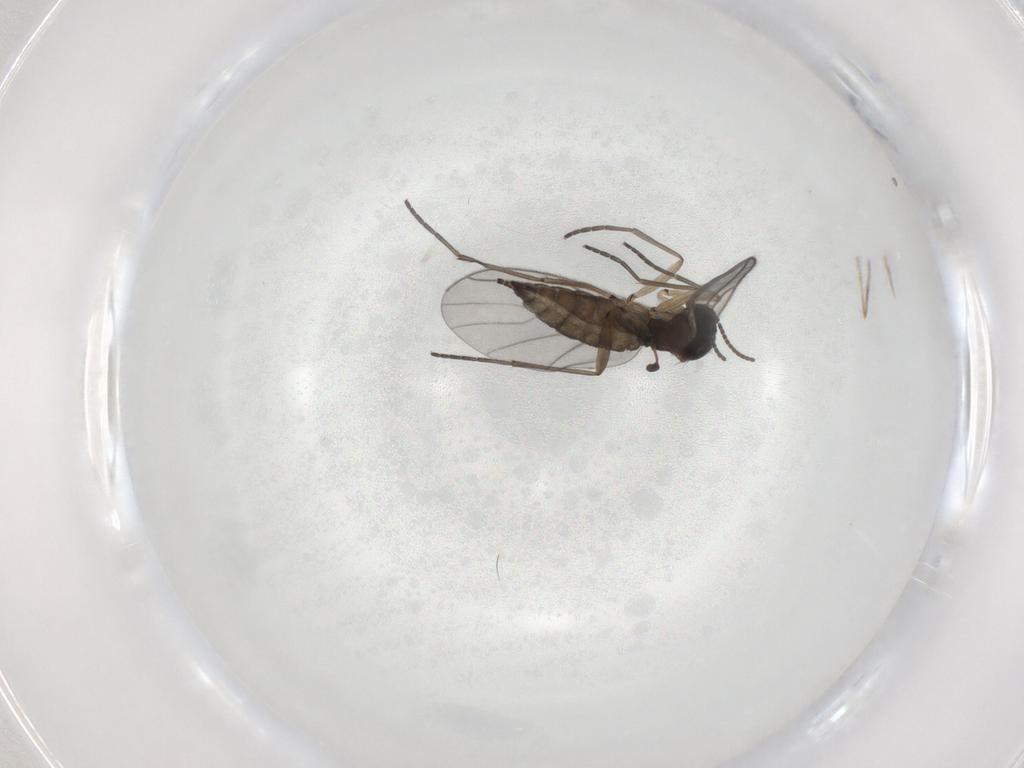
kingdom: Animalia
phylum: Arthropoda
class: Insecta
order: Diptera
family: Sciaridae
